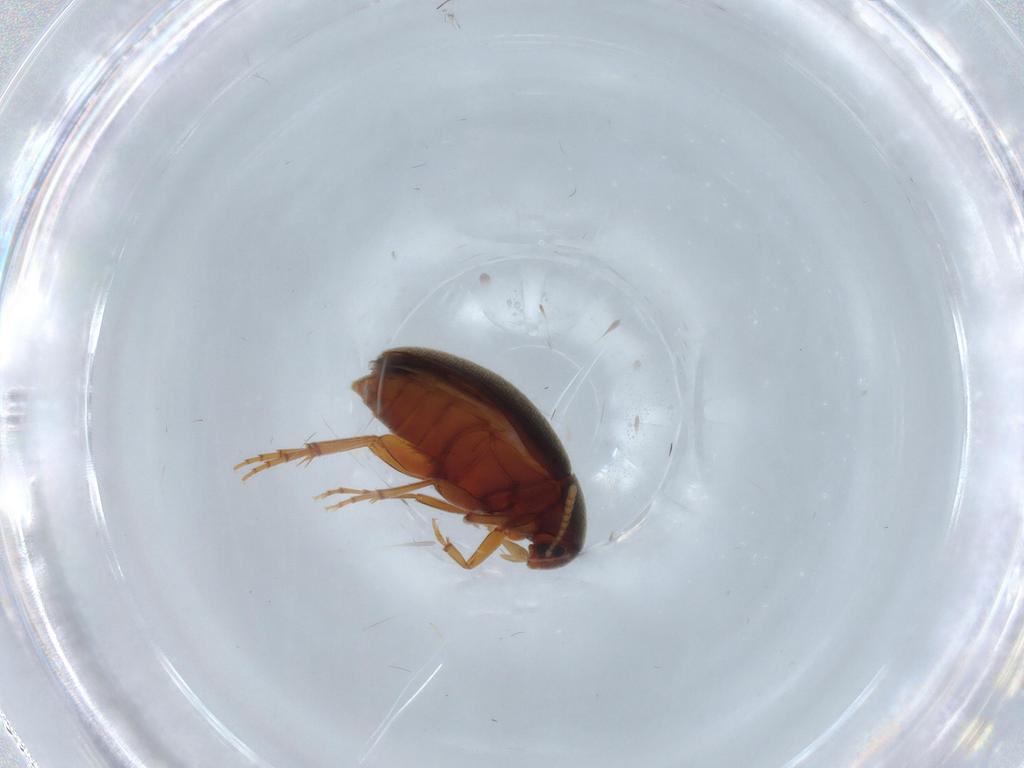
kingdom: Animalia
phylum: Arthropoda
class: Insecta
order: Coleoptera
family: Scraptiidae
